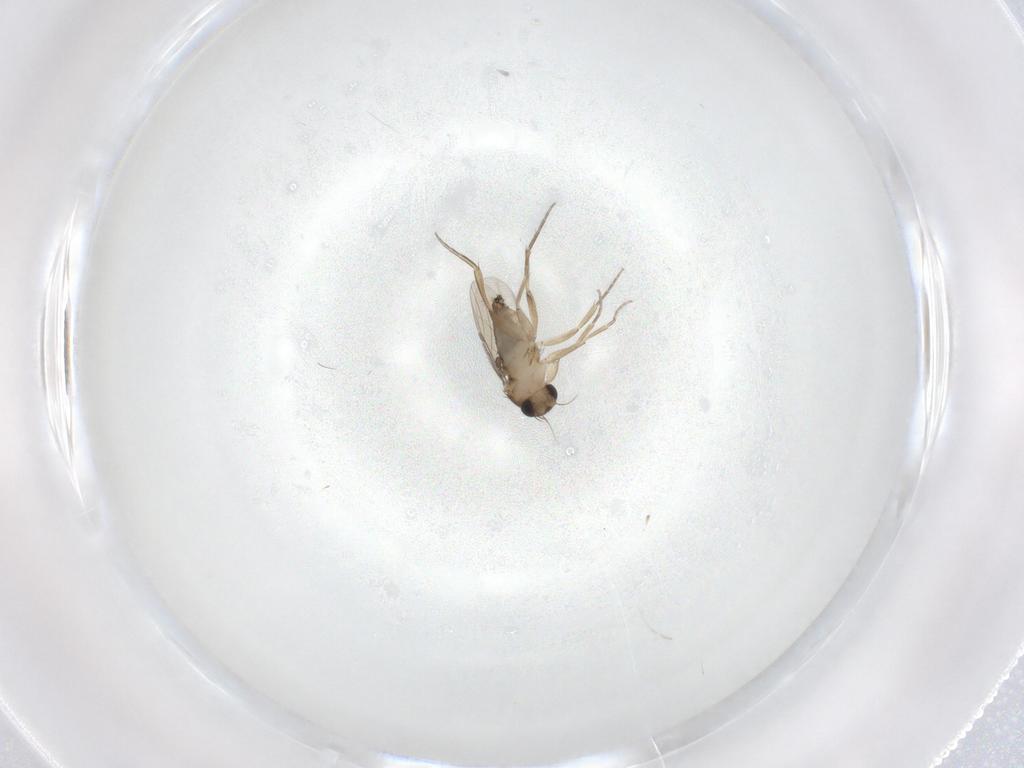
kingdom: Animalia
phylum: Arthropoda
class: Insecta
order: Diptera
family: Phoridae
